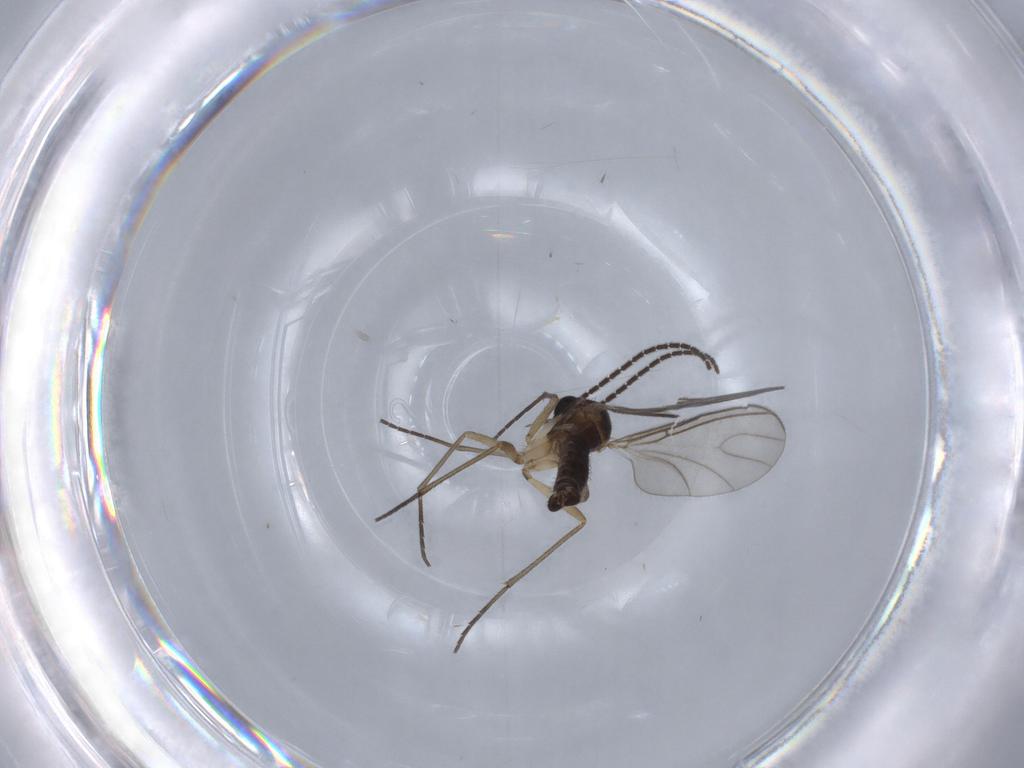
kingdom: Animalia
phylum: Arthropoda
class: Insecta
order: Diptera
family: Sciaridae
